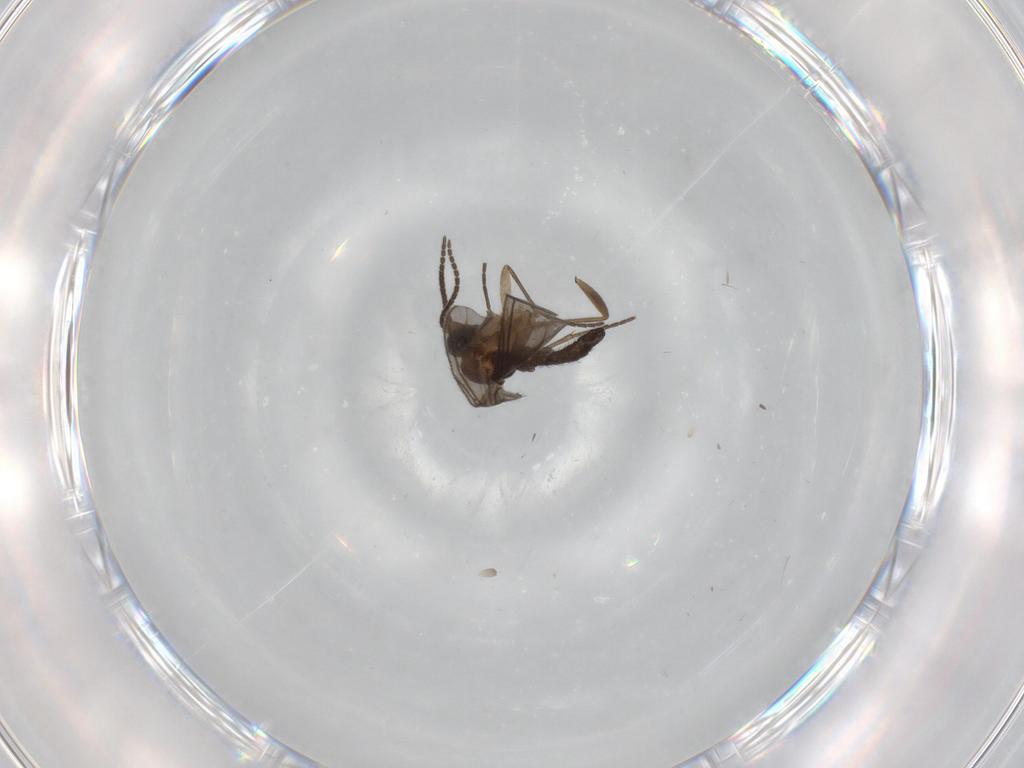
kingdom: Animalia
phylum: Arthropoda
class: Insecta
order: Diptera
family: Sciaridae
